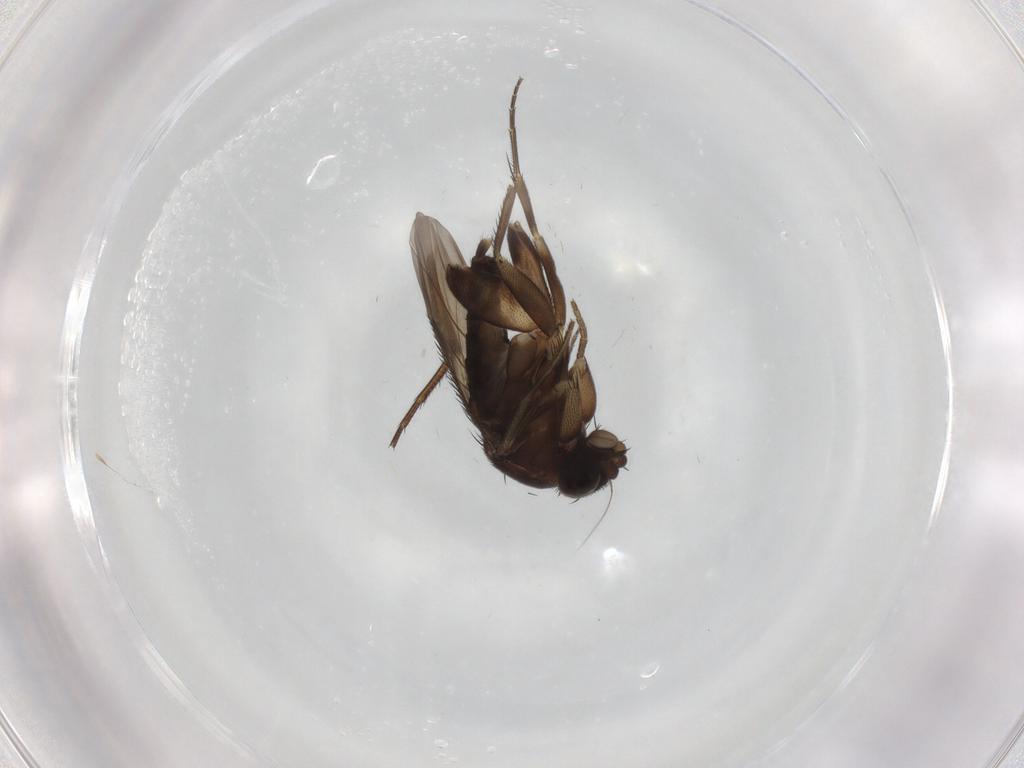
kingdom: Animalia
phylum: Arthropoda
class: Insecta
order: Diptera
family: Phoridae
